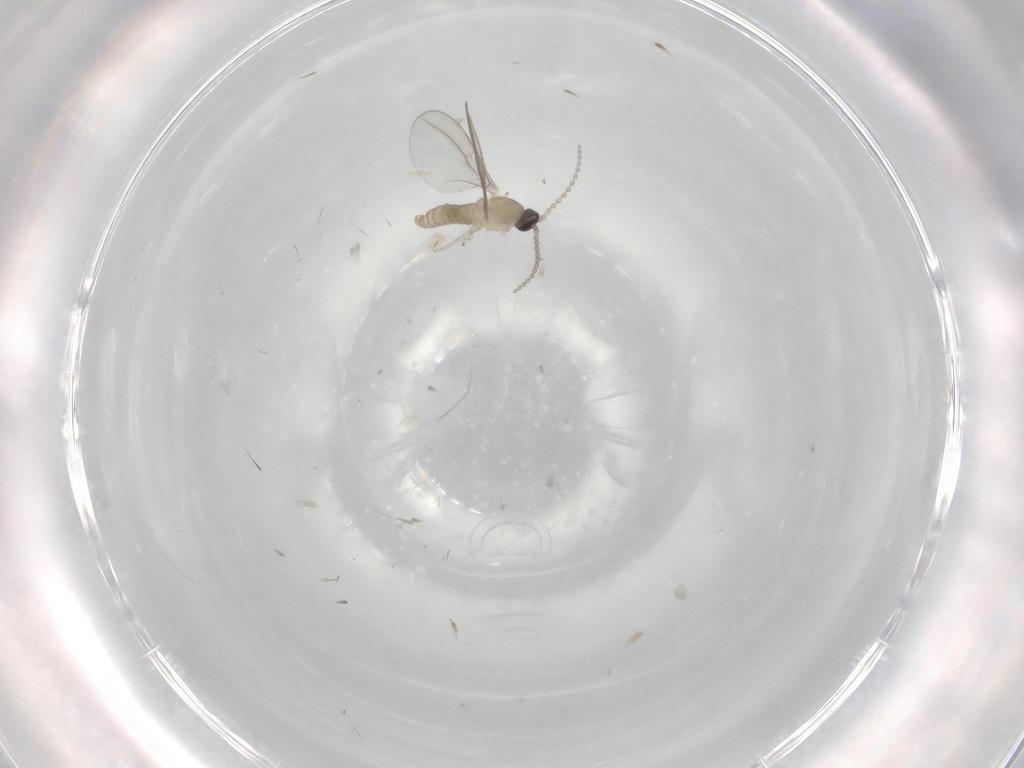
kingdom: Animalia
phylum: Arthropoda
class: Insecta
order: Diptera
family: Cecidomyiidae
